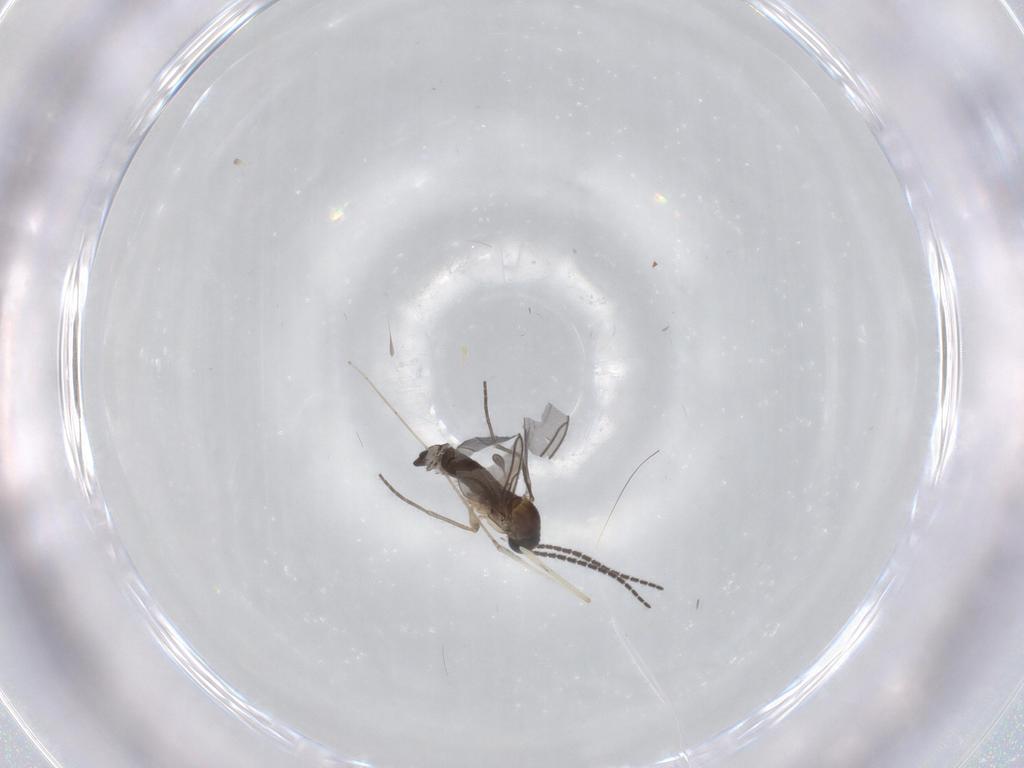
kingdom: Animalia
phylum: Arthropoda
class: Insecta
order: Diptera
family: Sciaridae
